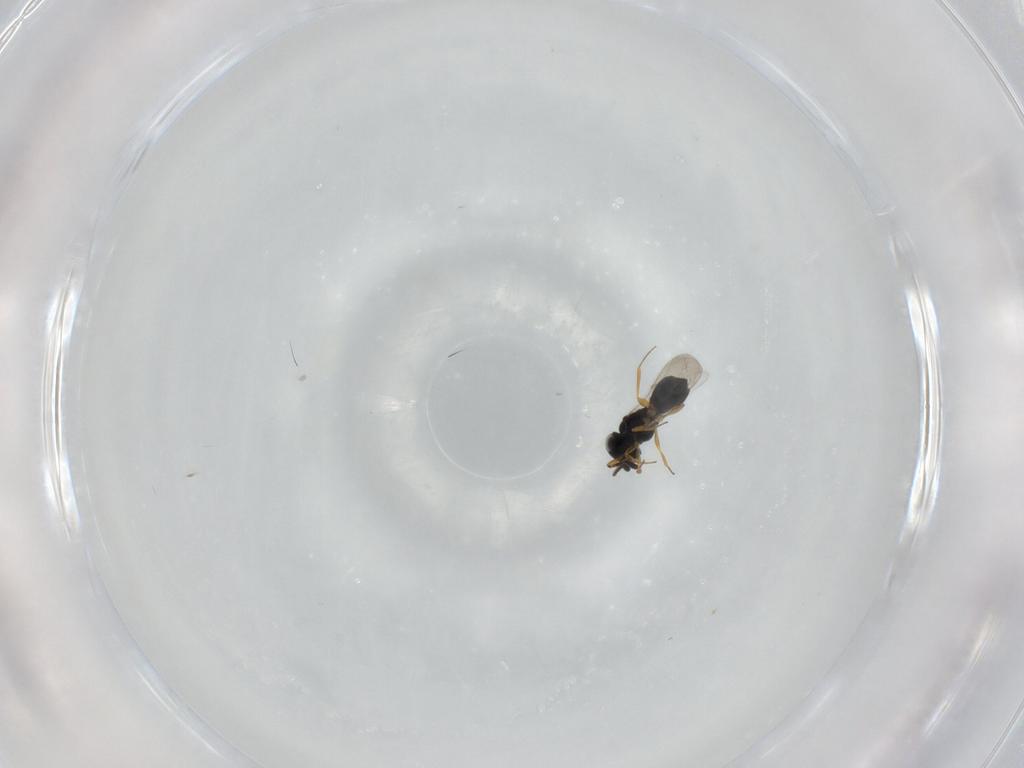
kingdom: Animalia
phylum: Arthropoda
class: Insecta
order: Hymenoptera
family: Scelionidae
